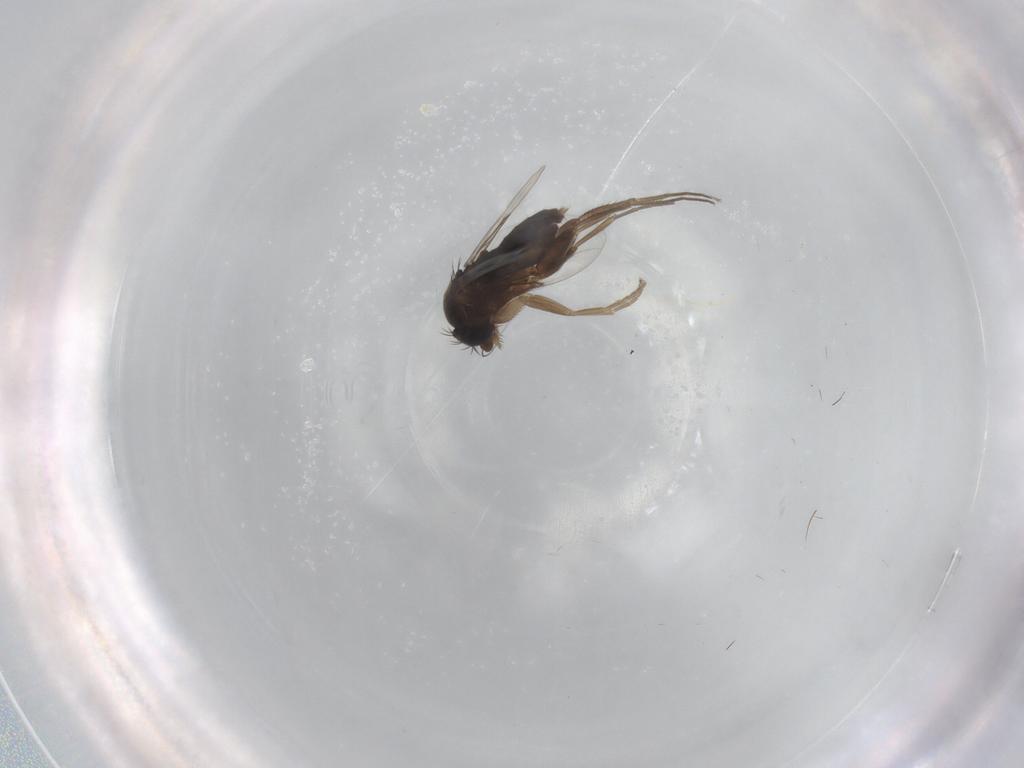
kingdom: Animalia
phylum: Arthropoda
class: Insecta
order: Diptera
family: Phoridae
